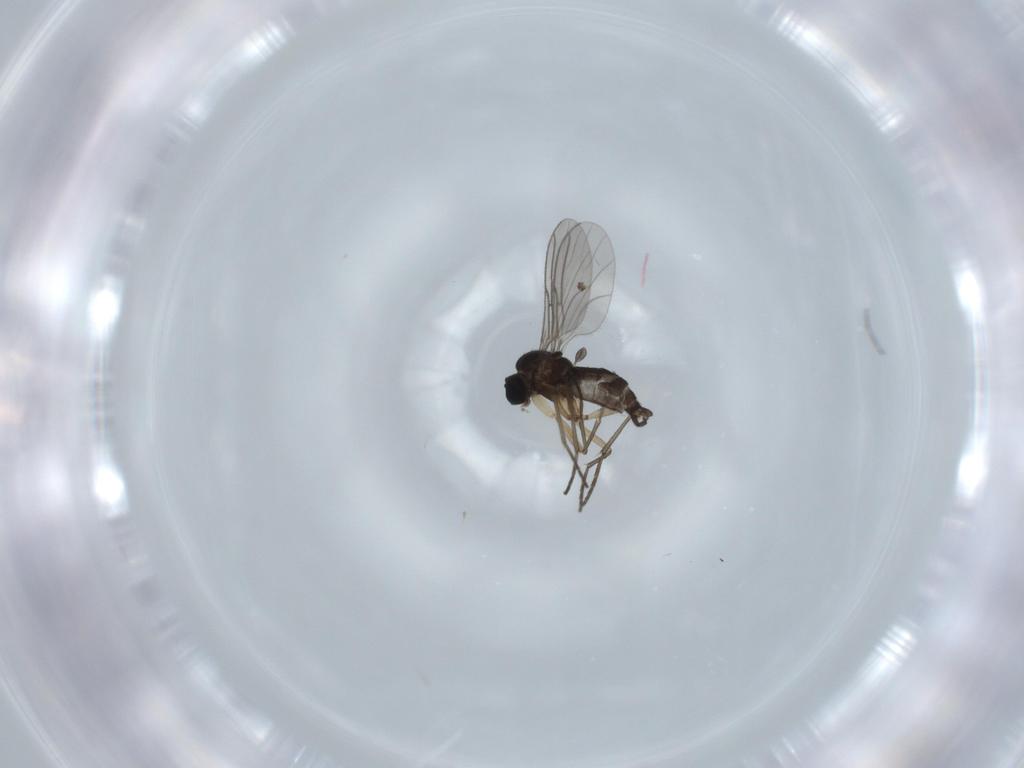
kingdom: Animalia
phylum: Arthropoda
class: Insecta
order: Diptera
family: Sciaridae
